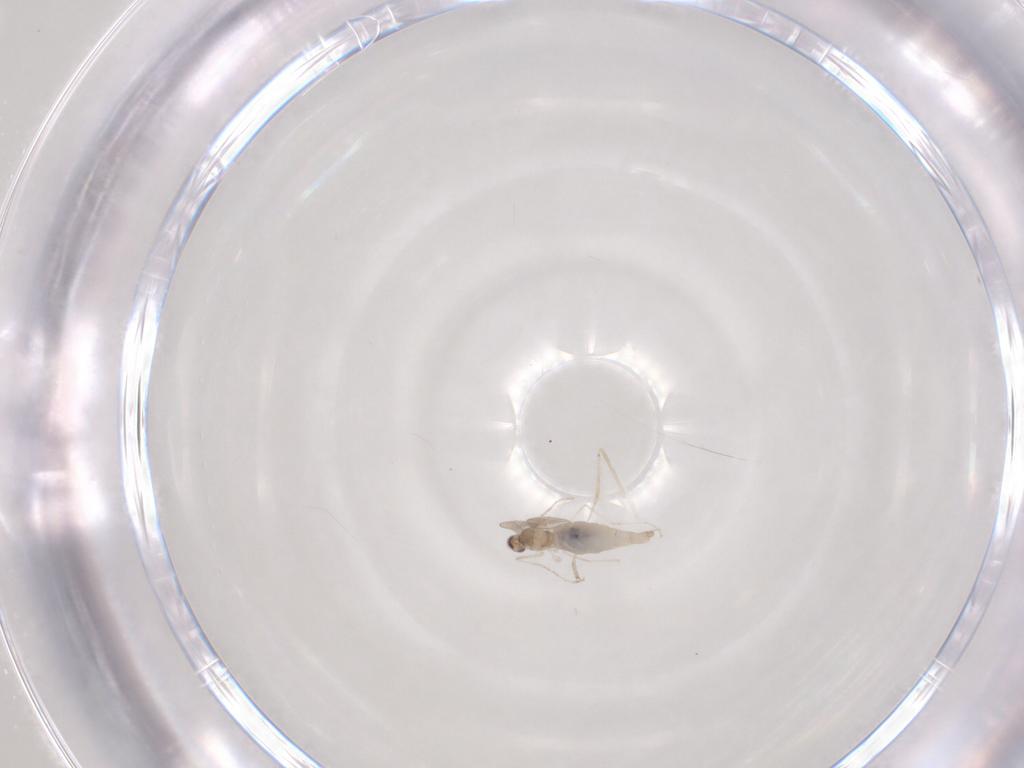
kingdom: Animalia
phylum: Arthropoda
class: Insecta
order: Diptera
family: Cecidomyiidae
